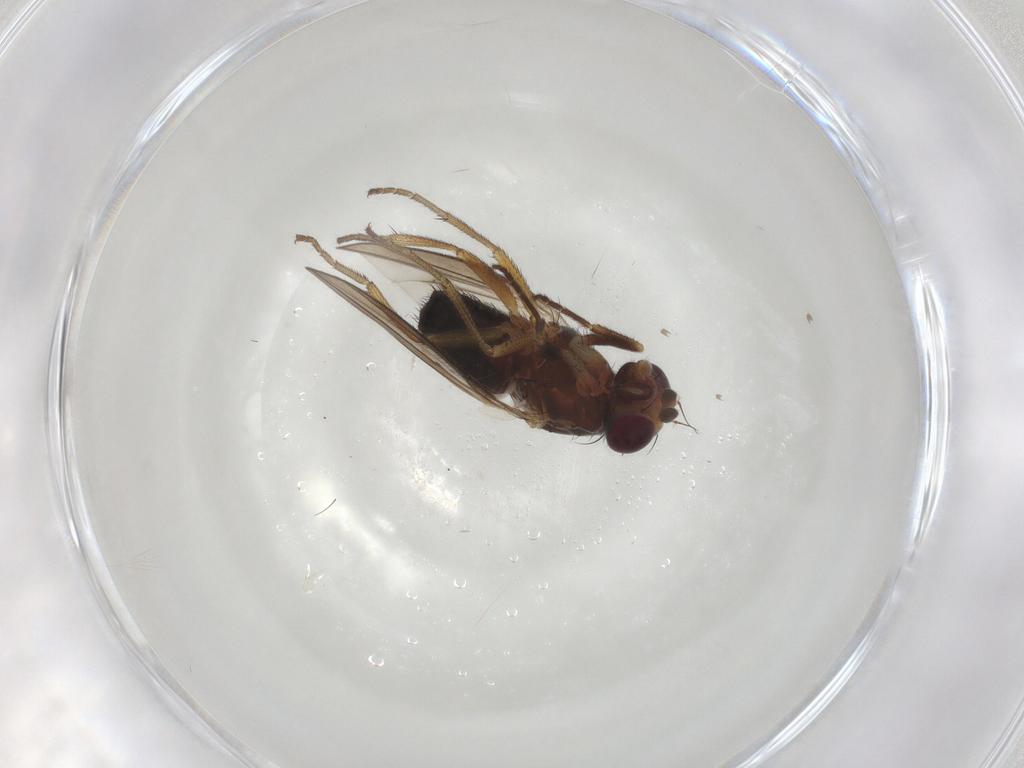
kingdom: Animalia
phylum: Arthropoda
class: Insecta
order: Diptera
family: Heleomyzidae
